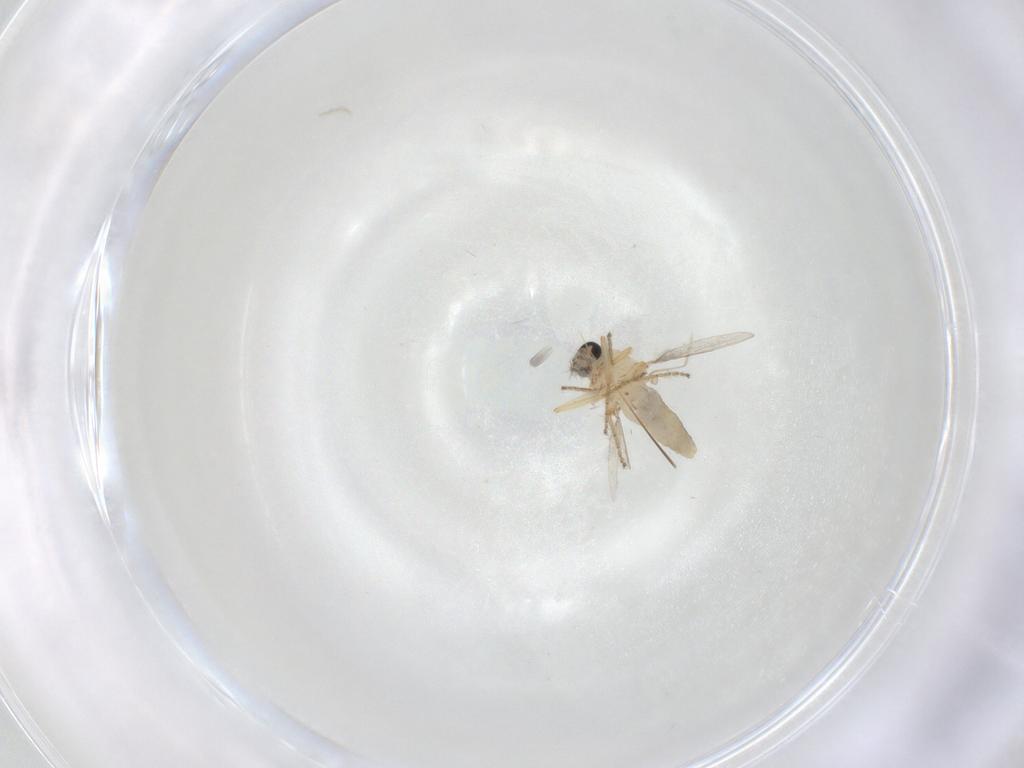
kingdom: Animalia
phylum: Arthropoda
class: Insecta
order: Diptera
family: Ceratopogonidae
